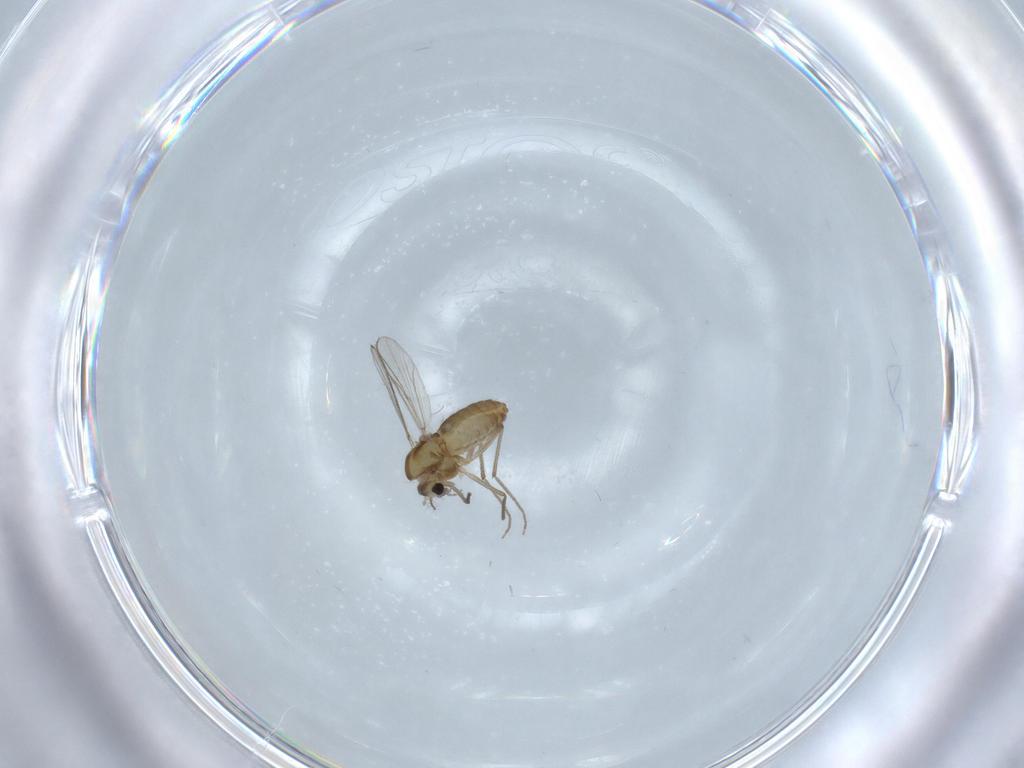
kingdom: Animalia
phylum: Arthropoda
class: Insecta
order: Diptera
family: Chironomidae
